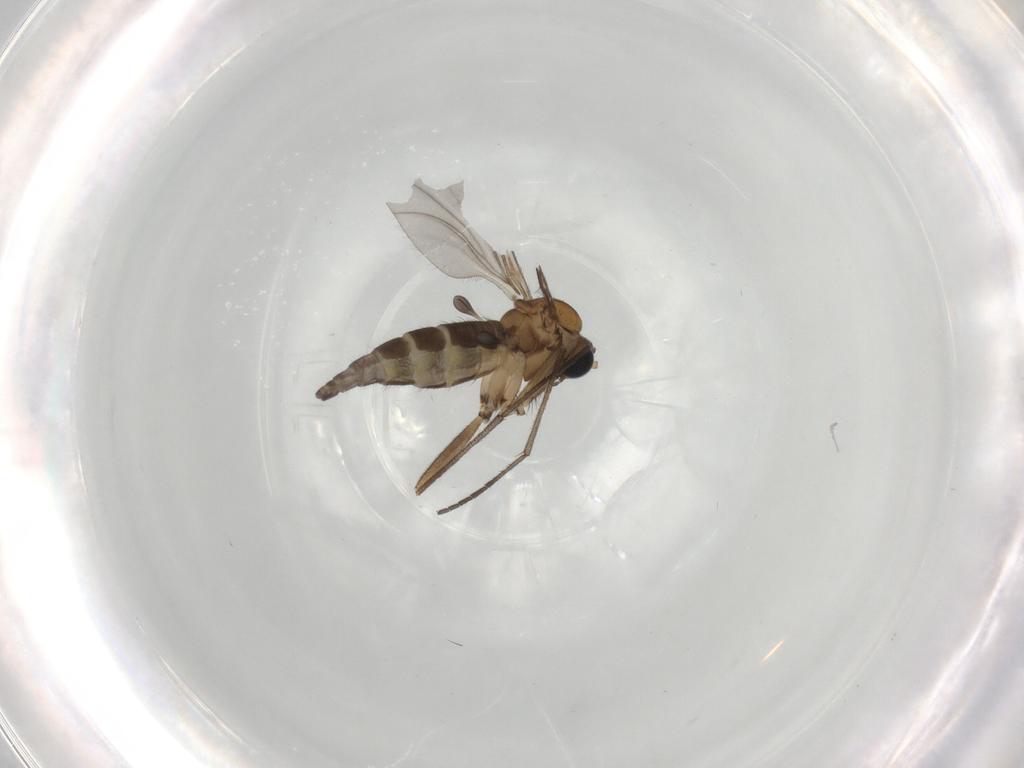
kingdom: Animalia
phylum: Arthropoda
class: Insecta
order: Diptera
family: Sciaridae
